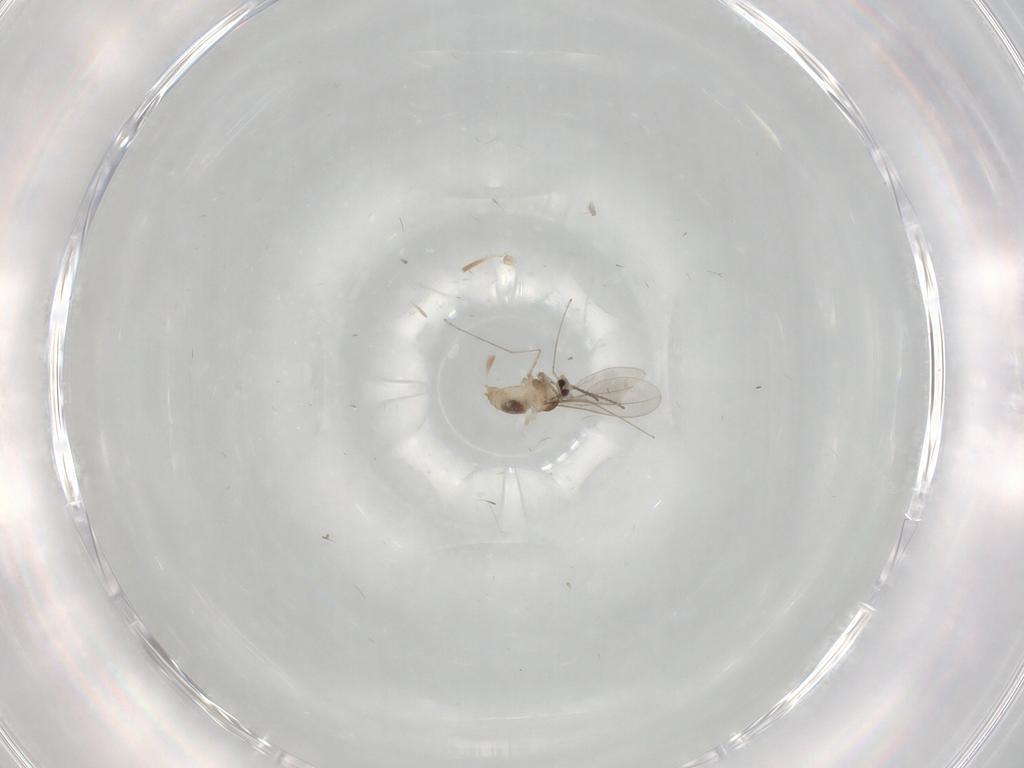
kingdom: Animalia
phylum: Arthropoda
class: Insecta
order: Diptera
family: Cecidomyiidae
